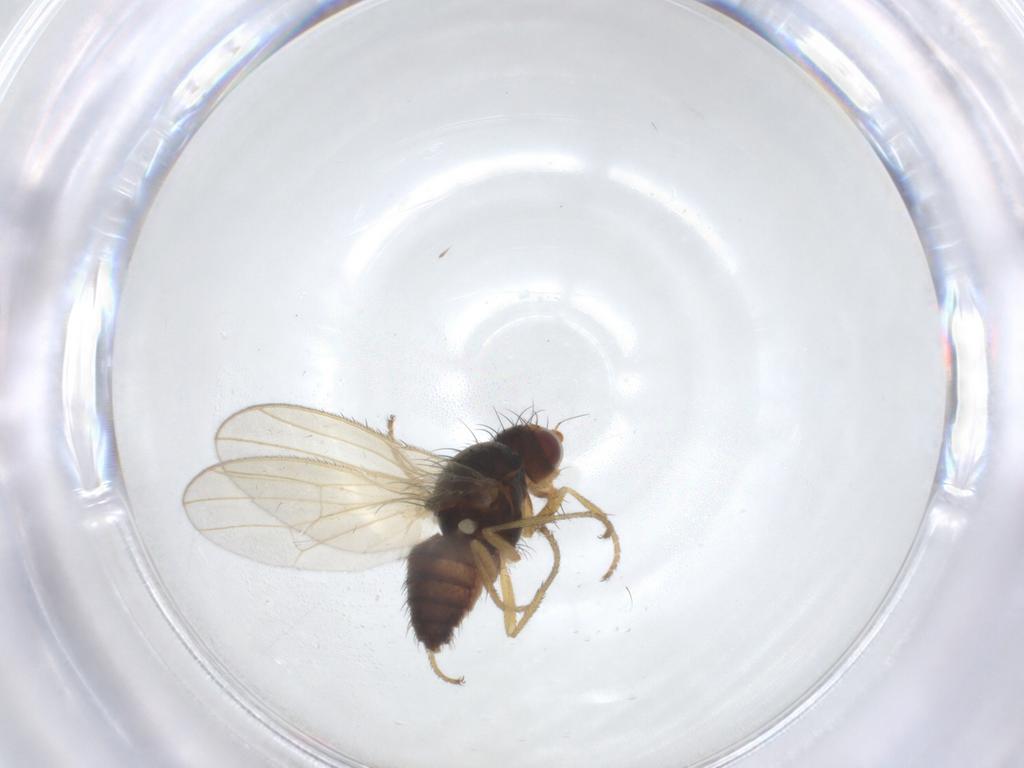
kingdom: Animalia
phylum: Arthropoda
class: Insecta
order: Diptera
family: Heleomyzidae
